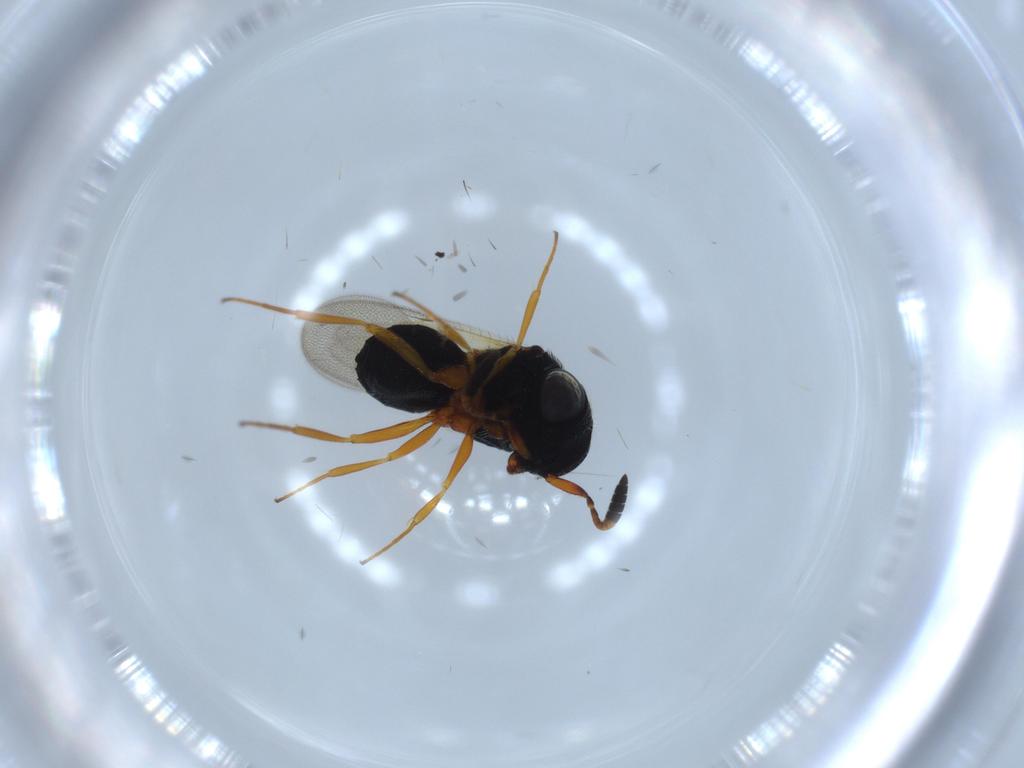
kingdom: Animalia
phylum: Arthropoda
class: Insecta
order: Hymenoptera
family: Scelionidae
